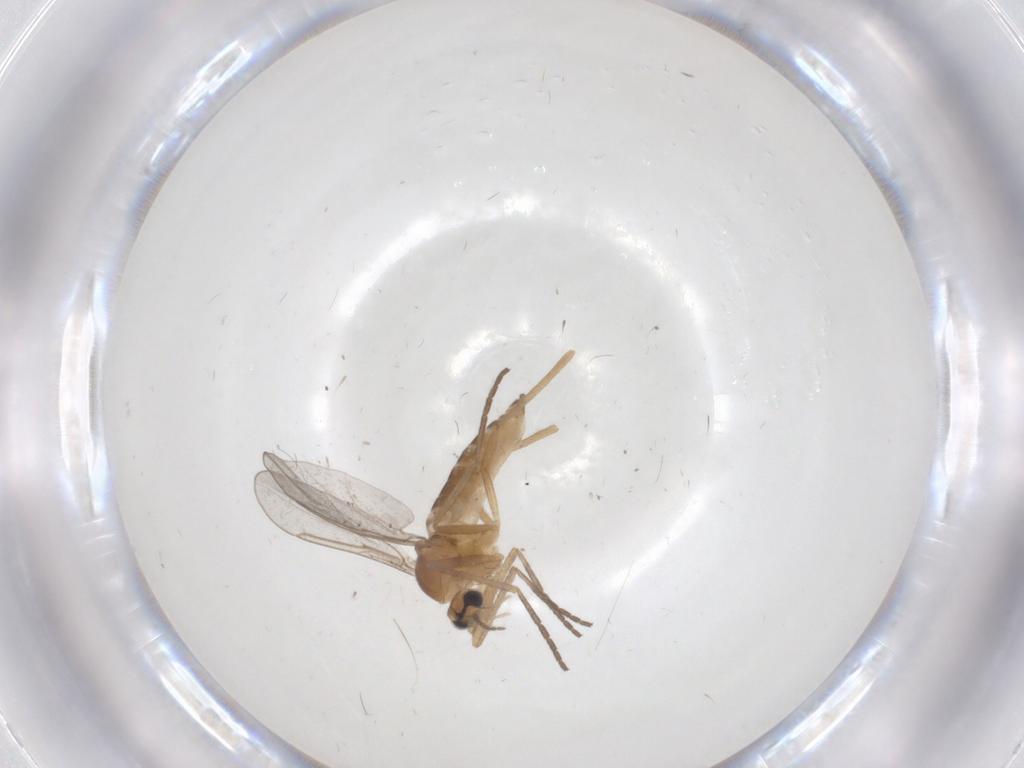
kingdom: Animalia
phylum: Arthropoda
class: Insecta
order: Diptera
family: Cecidomyiidae
